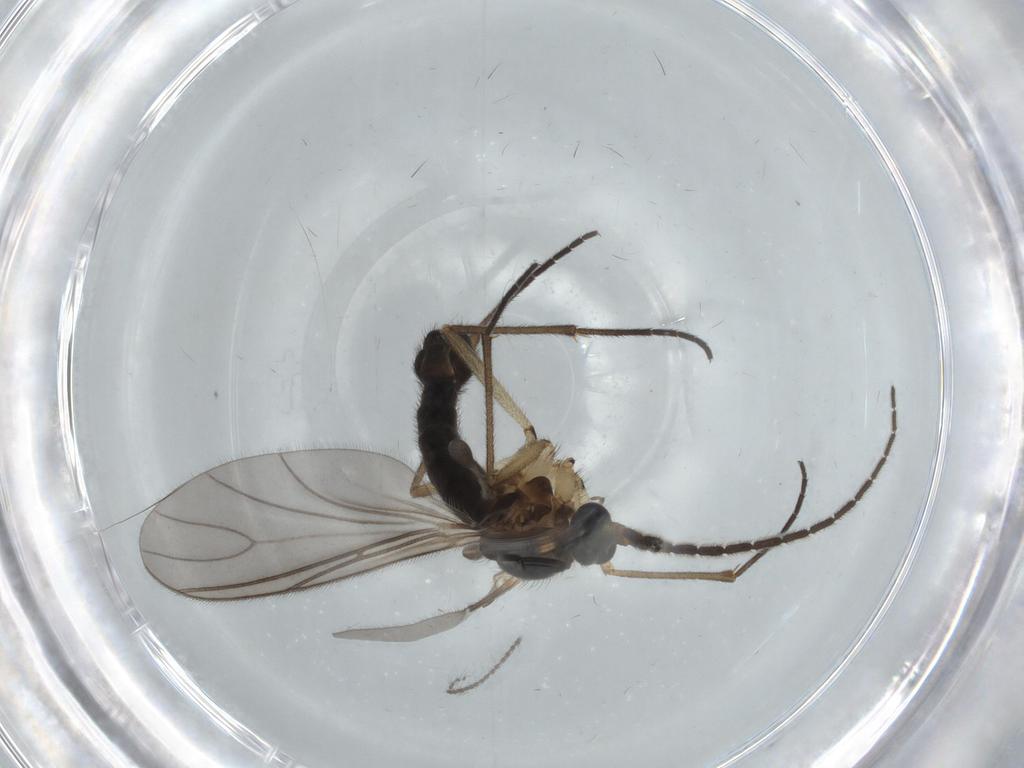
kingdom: Animalia
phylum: Arthropoda
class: Insecta
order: Diptera
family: Sciaridae
